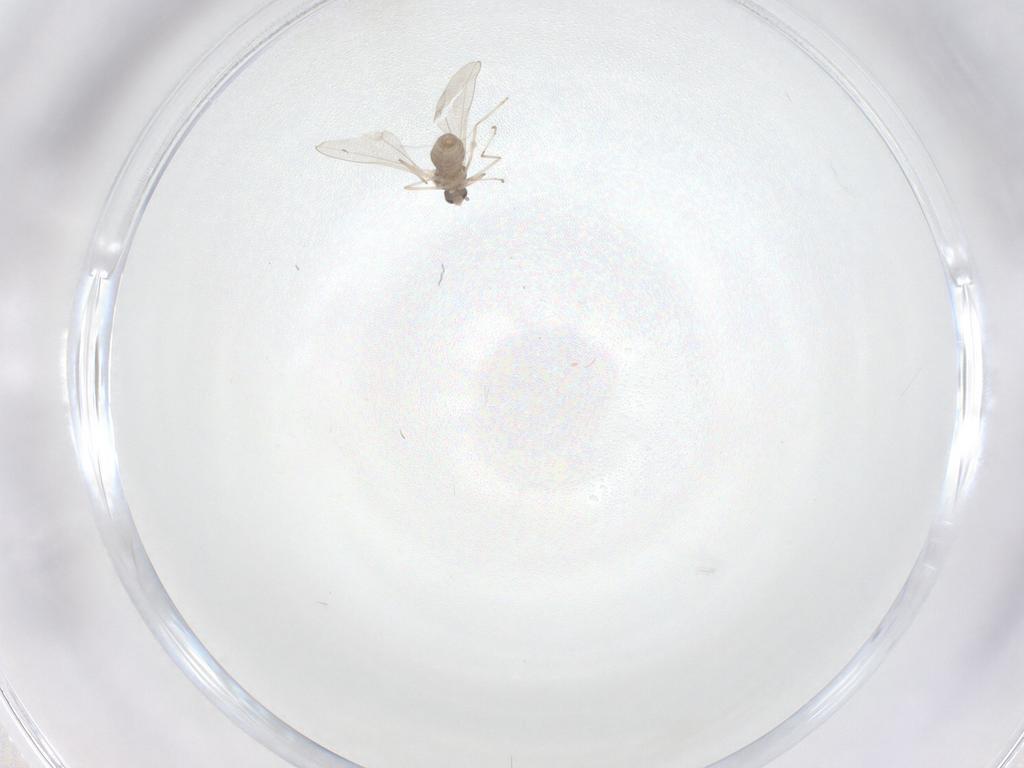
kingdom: Animalia
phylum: Arthropoda
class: Insecta
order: Diptera
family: Cecidomyiidae
